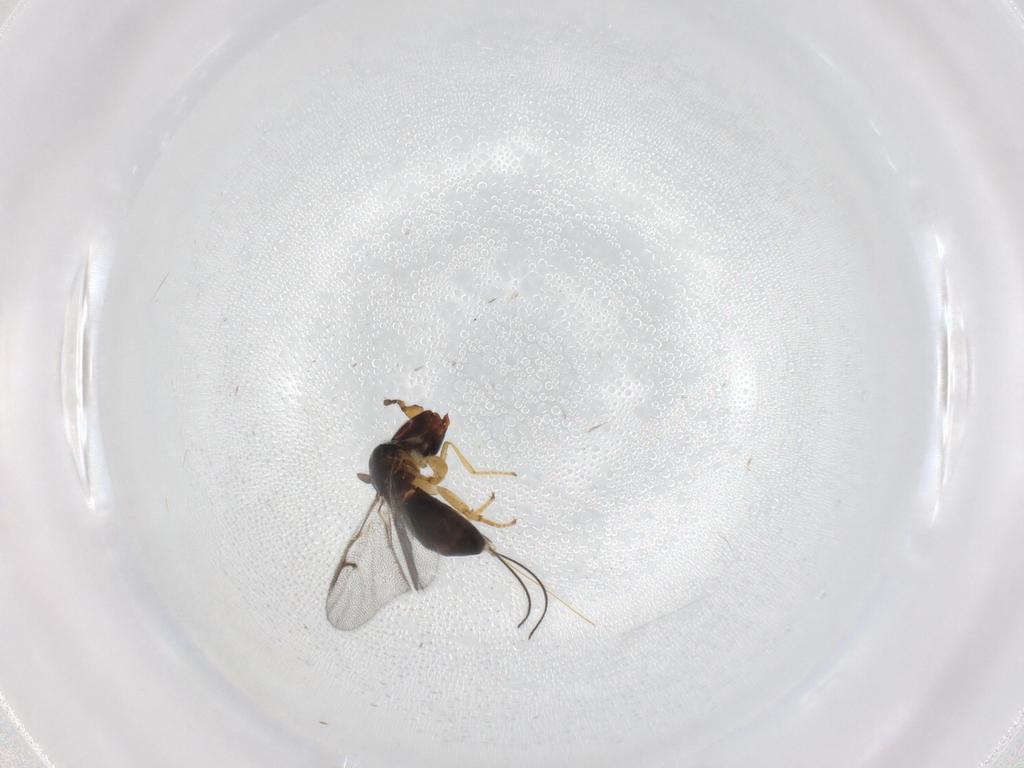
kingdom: Animalia
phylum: Arthropoda
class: Insecta
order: Hymenoptera
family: Agaonidae
